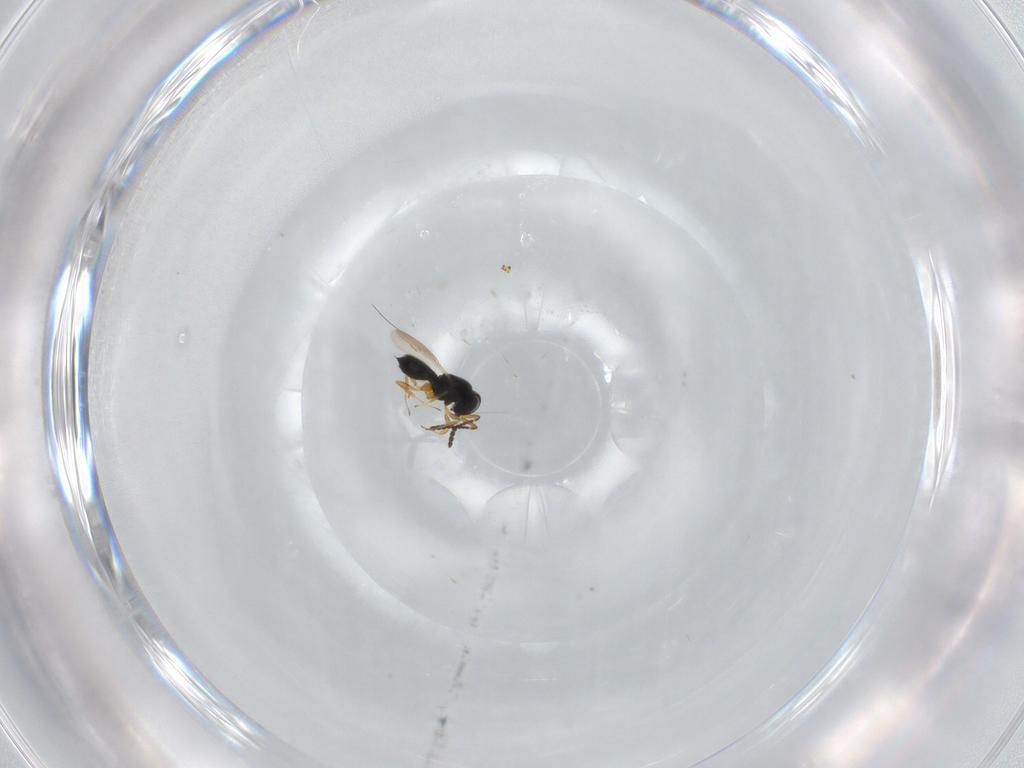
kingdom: Animalia
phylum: Arthropoda
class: Insecta
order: Hymenoptera
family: Scelionidae
